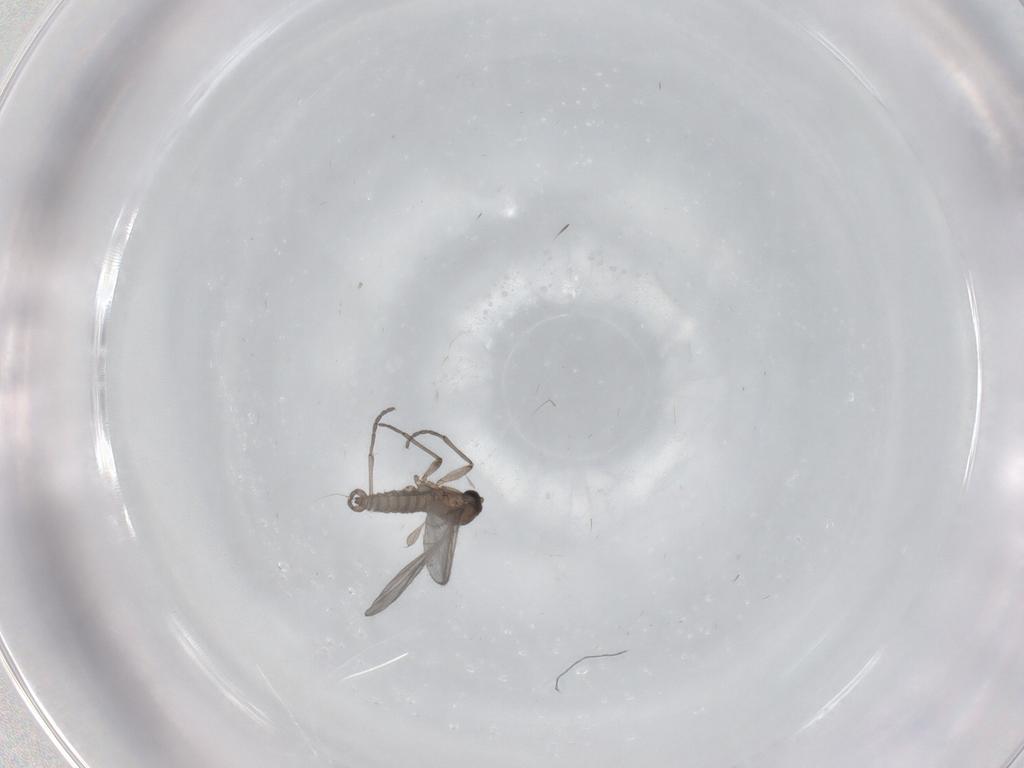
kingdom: Animalia
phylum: Arthropoda
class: Insecta
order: Diptera
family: Sciaridae
